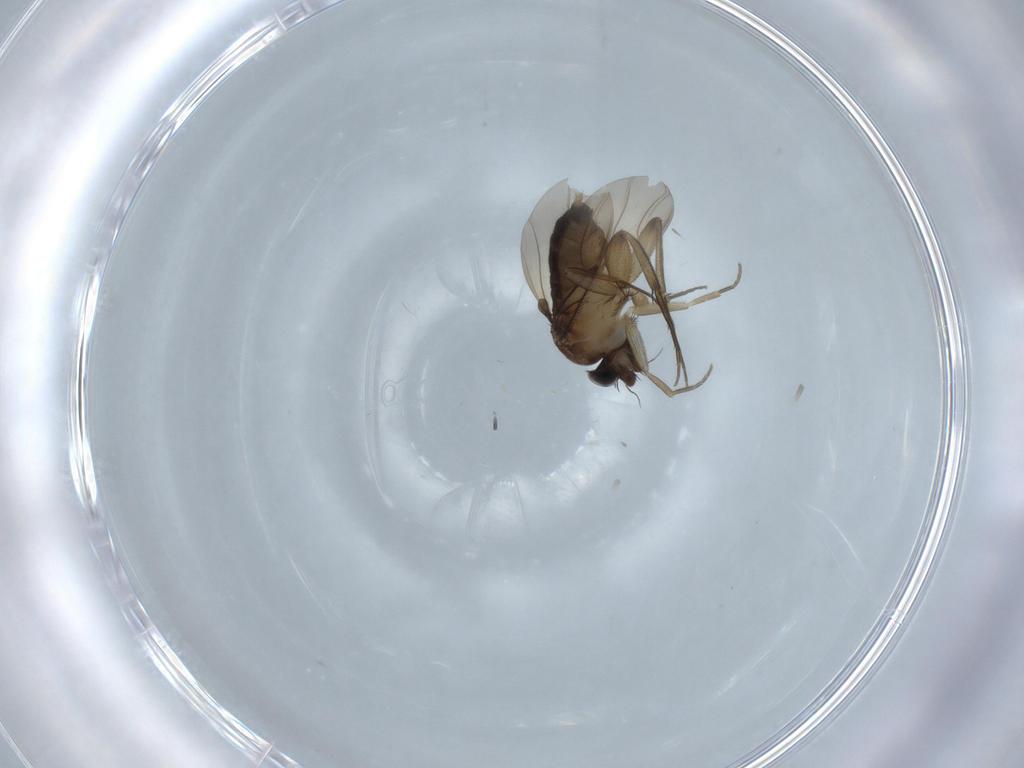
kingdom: Animalia
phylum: Arthropoda
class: Insecta
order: Diptera
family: Phoridae
